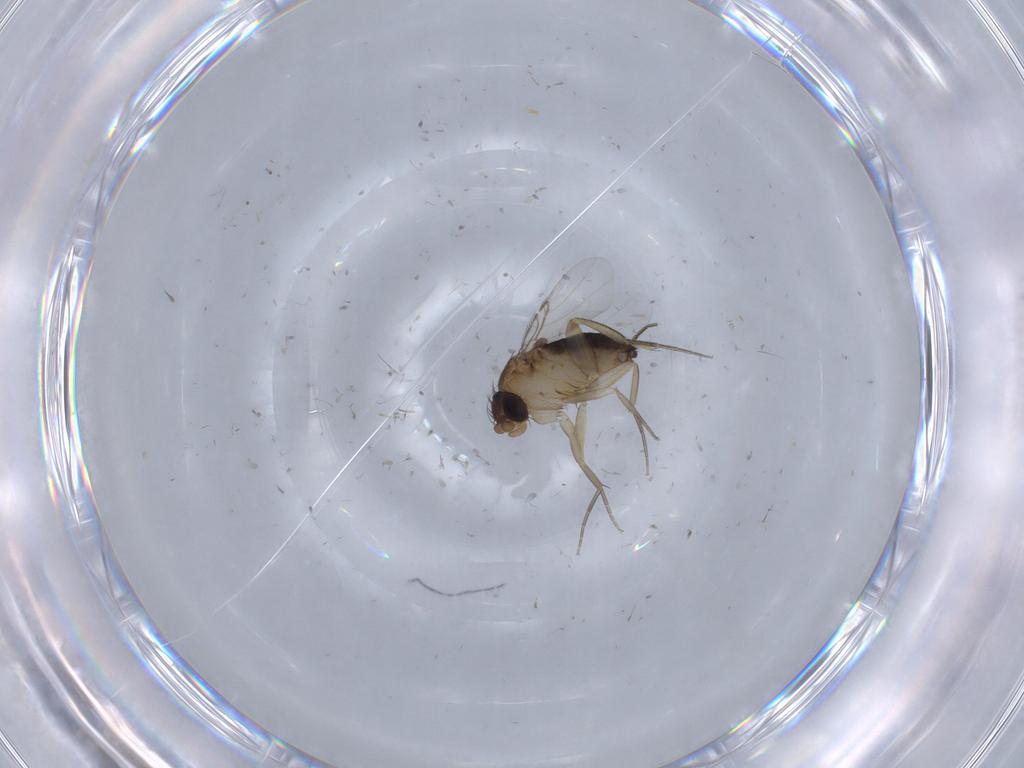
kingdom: Animalia
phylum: Arthropoda
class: Insecta
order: Diptera
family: Sciaridae
